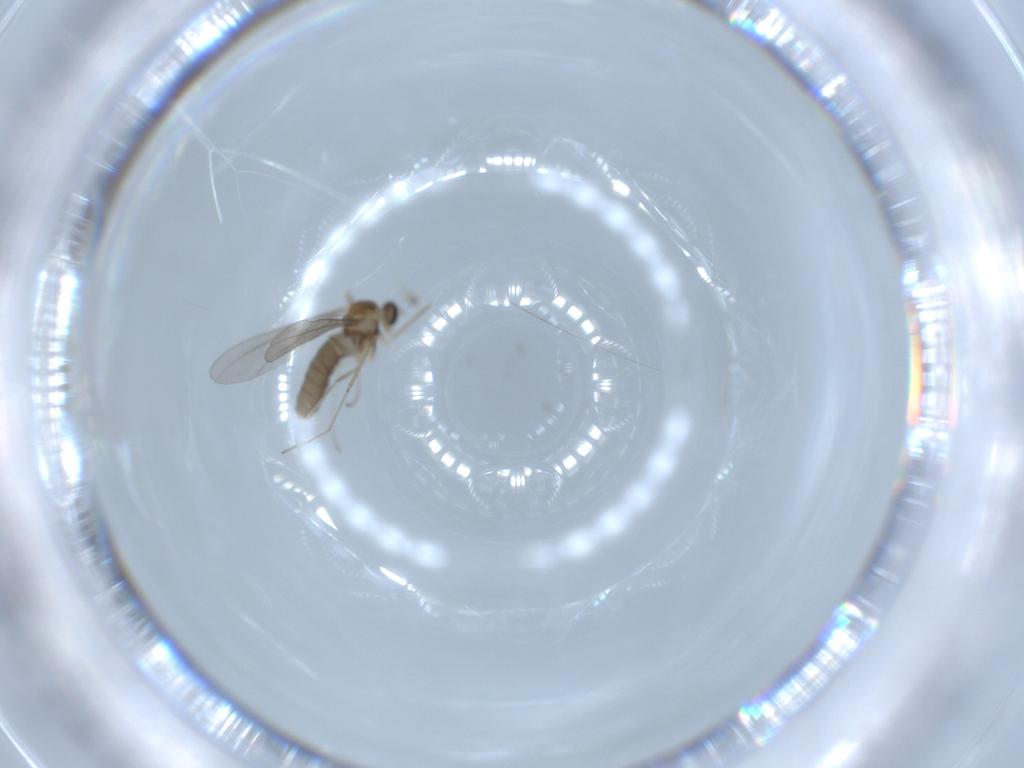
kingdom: Animalia
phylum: Arthropoda
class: Insecta
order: Diptera
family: Cecidomyiidae
